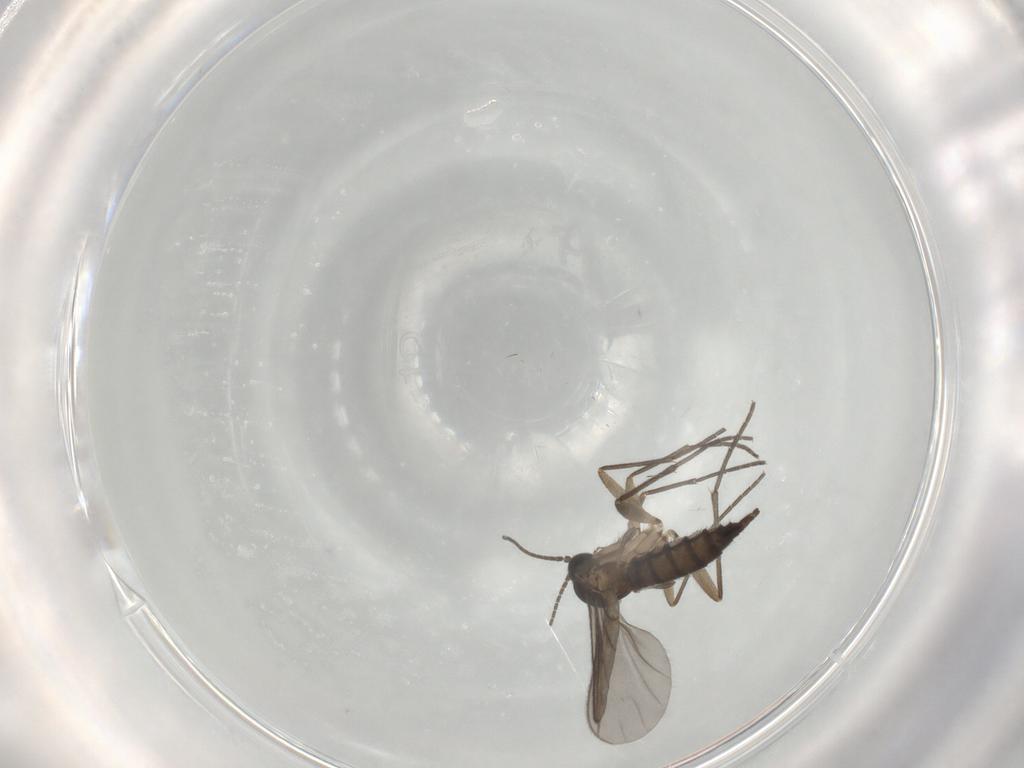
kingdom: Animalia
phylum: Arthropoda
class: Insecta
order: Diptera
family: Sciaridae
